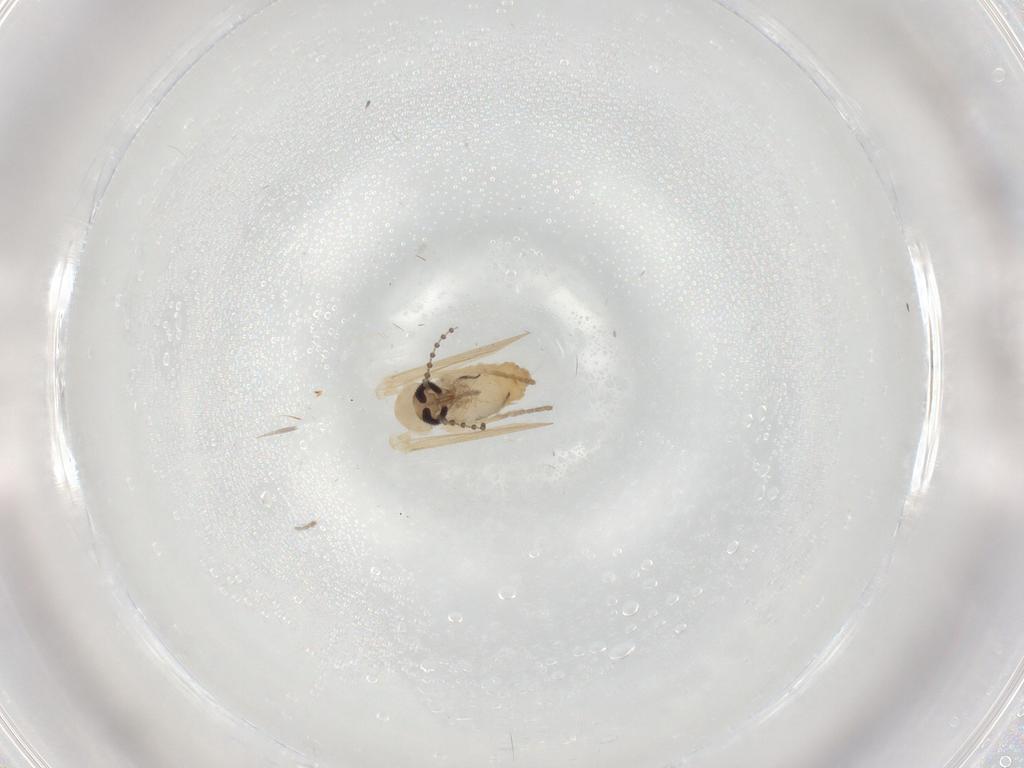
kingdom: Animalia
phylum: Arthropoda
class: Insecta
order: Diptera
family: Psychodidae
